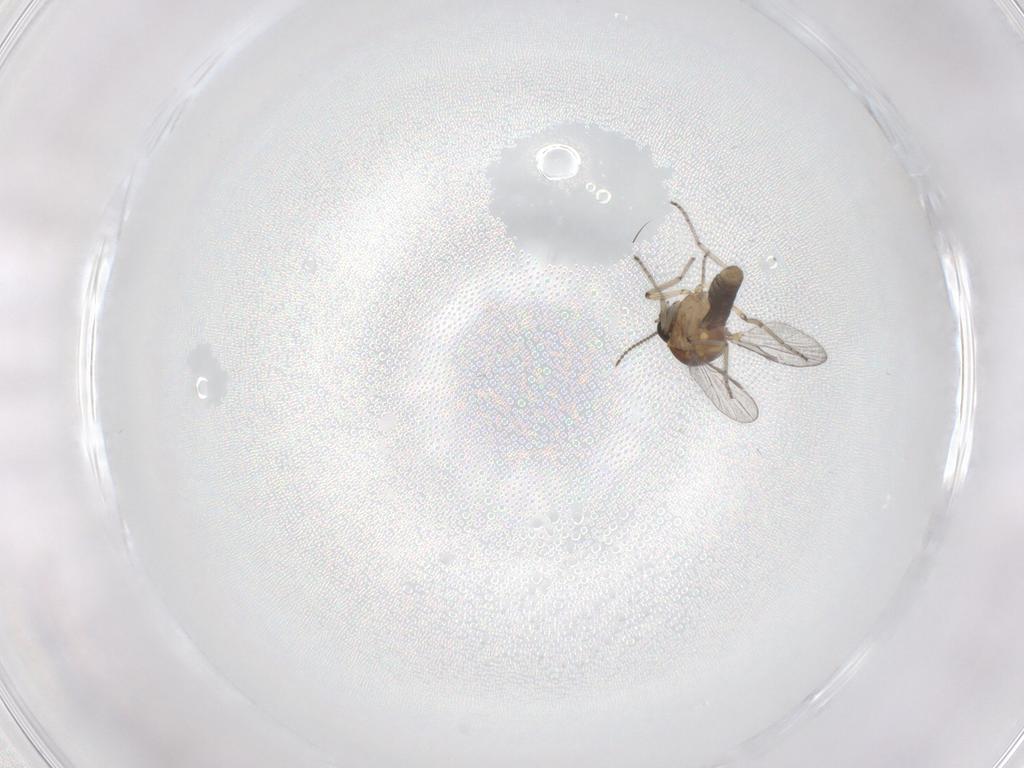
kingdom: Animalia
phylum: Arthropoda
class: Insecta
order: Diptera
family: Ceratopogonidae
